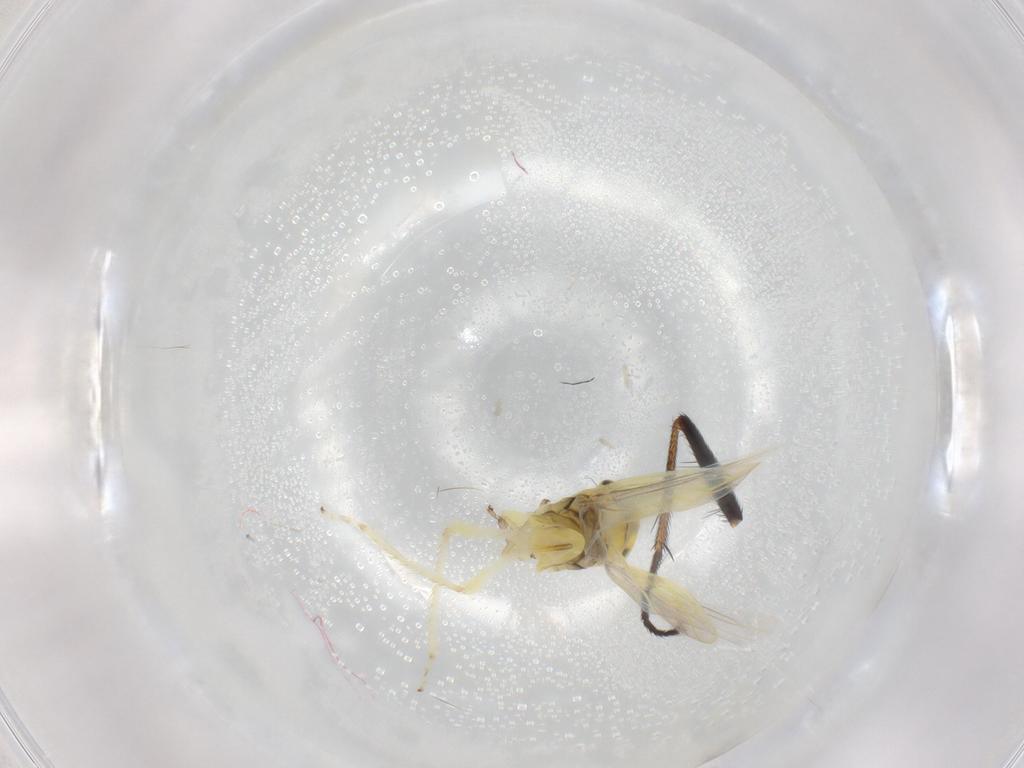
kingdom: Animalia
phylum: Arthropoda
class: Insecta
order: Hemiptera
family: Cicadellidae
